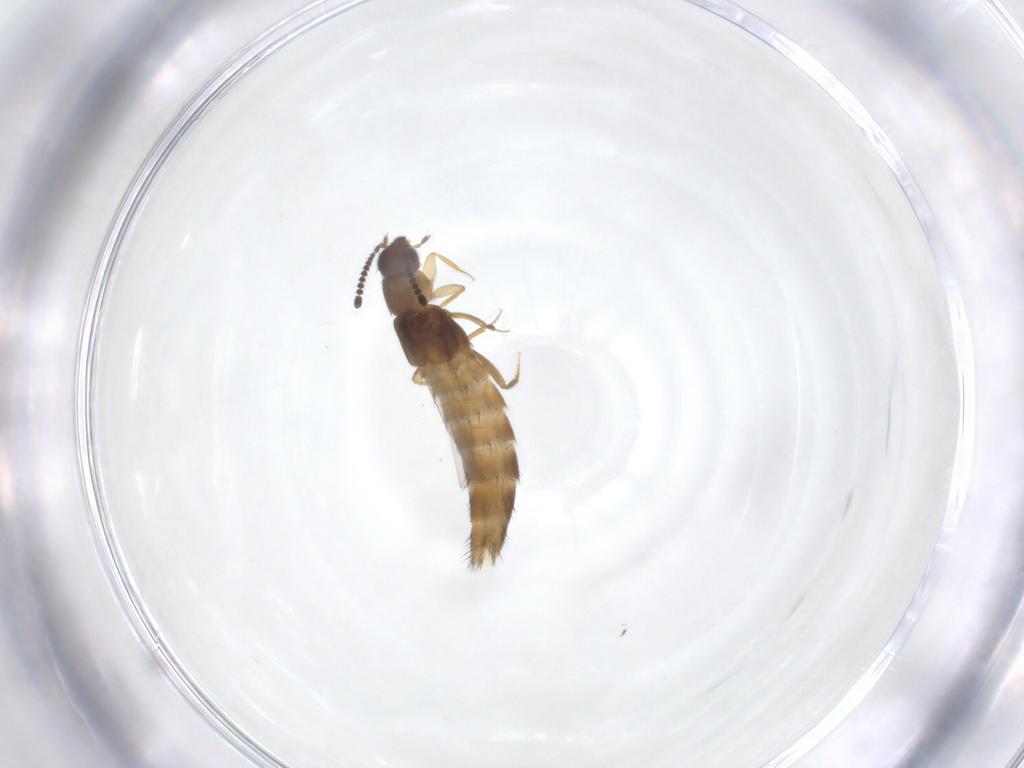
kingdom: Animalia
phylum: Arthropoda
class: Insecta
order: Coleoptera
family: Staphylinidae
